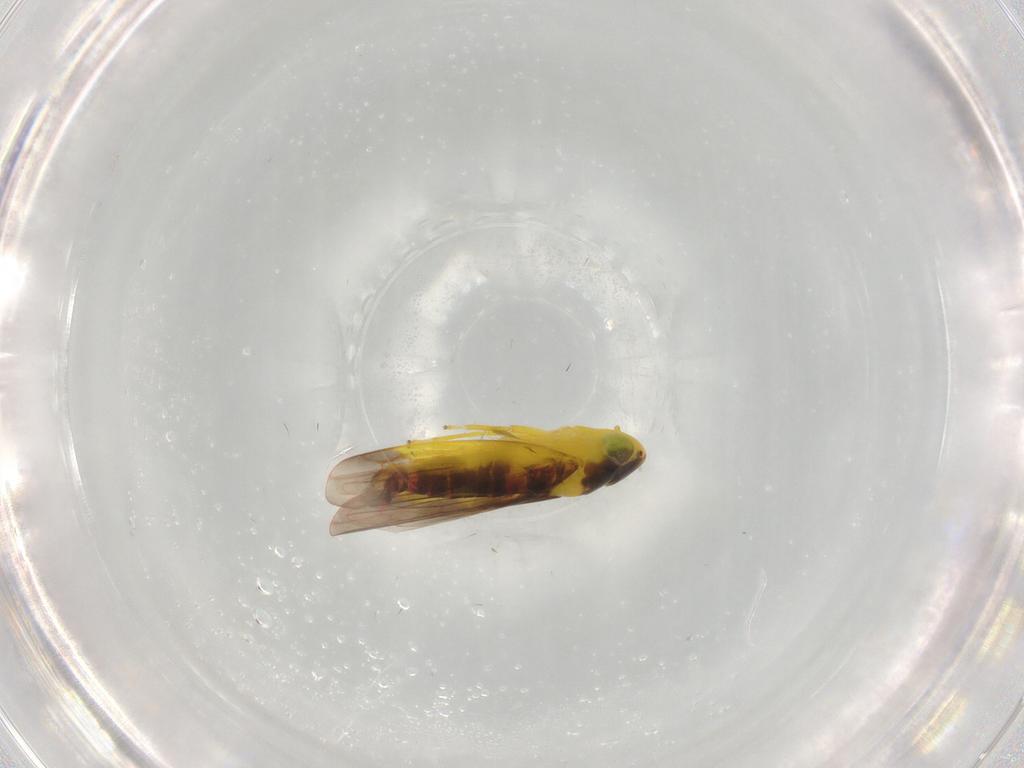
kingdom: Animalia
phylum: Arthropoda
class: Insecta
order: Hemiptera
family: Cicadellidae
